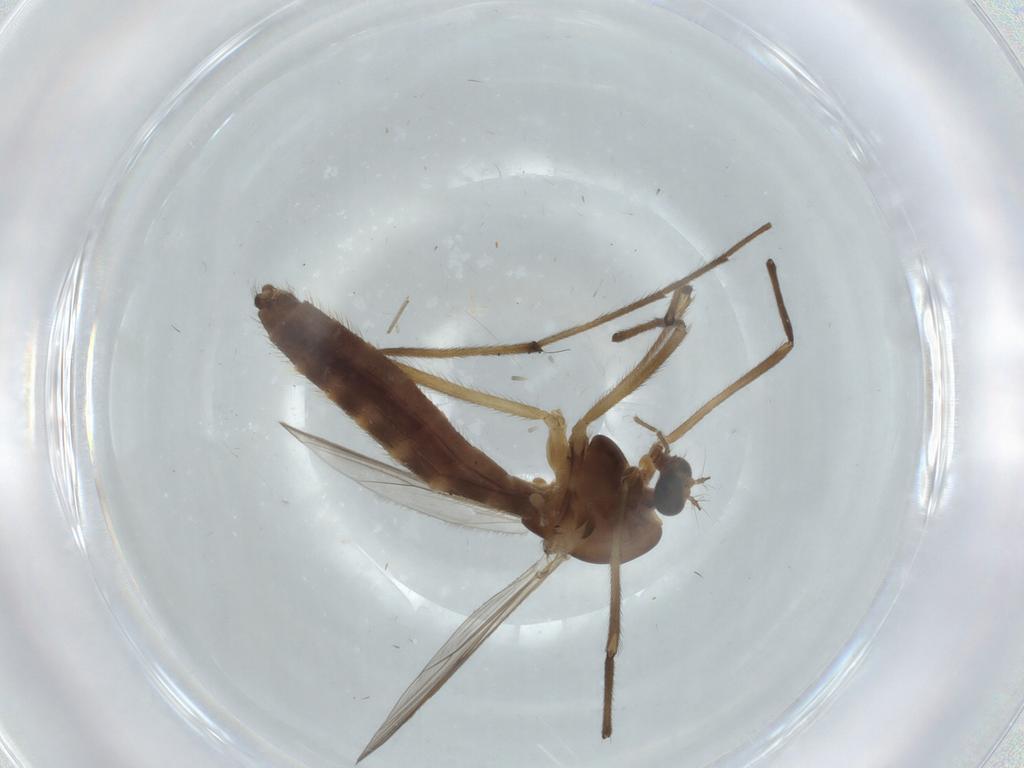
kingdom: Animalia
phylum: Arthropoda
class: Insecta
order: Diptera
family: Chironomidae
